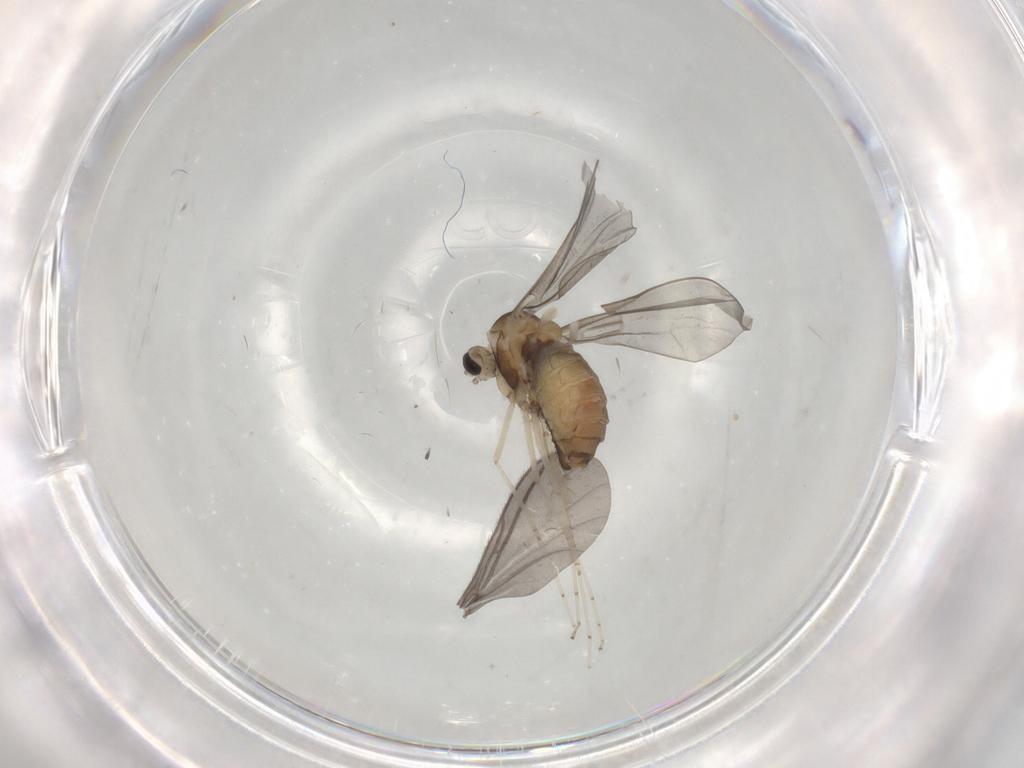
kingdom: Animalia
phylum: Arthropoda
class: Insecta
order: Diptera
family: Cecidomyiidae
